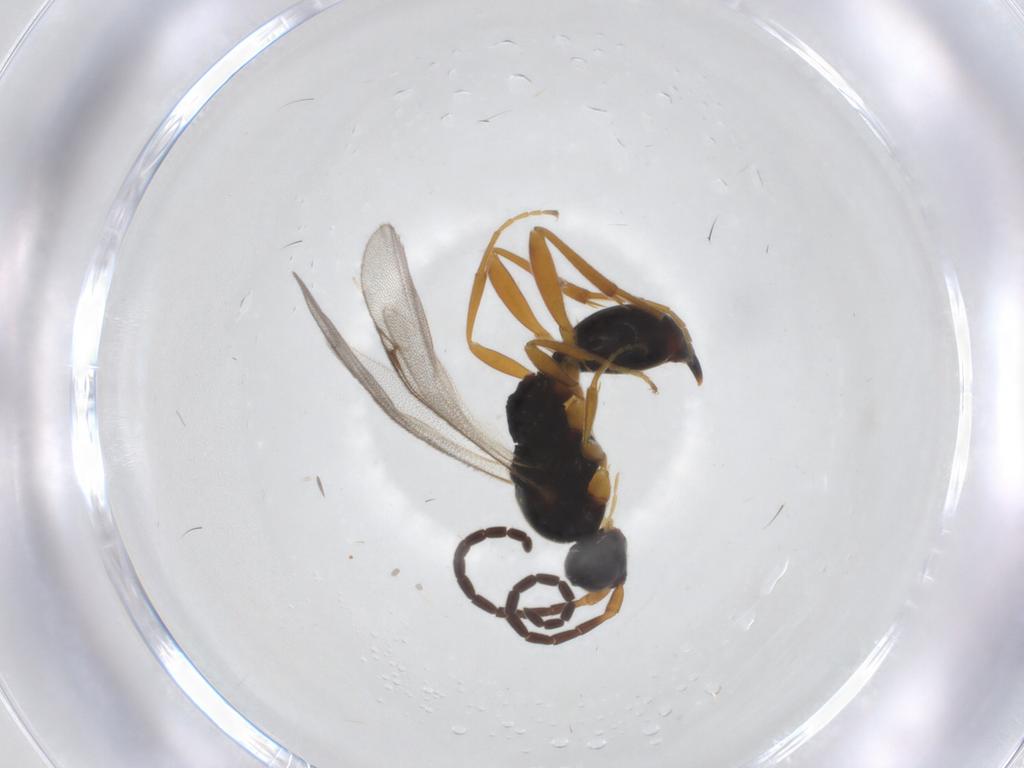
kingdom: Animalia
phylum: Arthropoda
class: Insecta
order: Hymenoptera
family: Proctotrupidae
